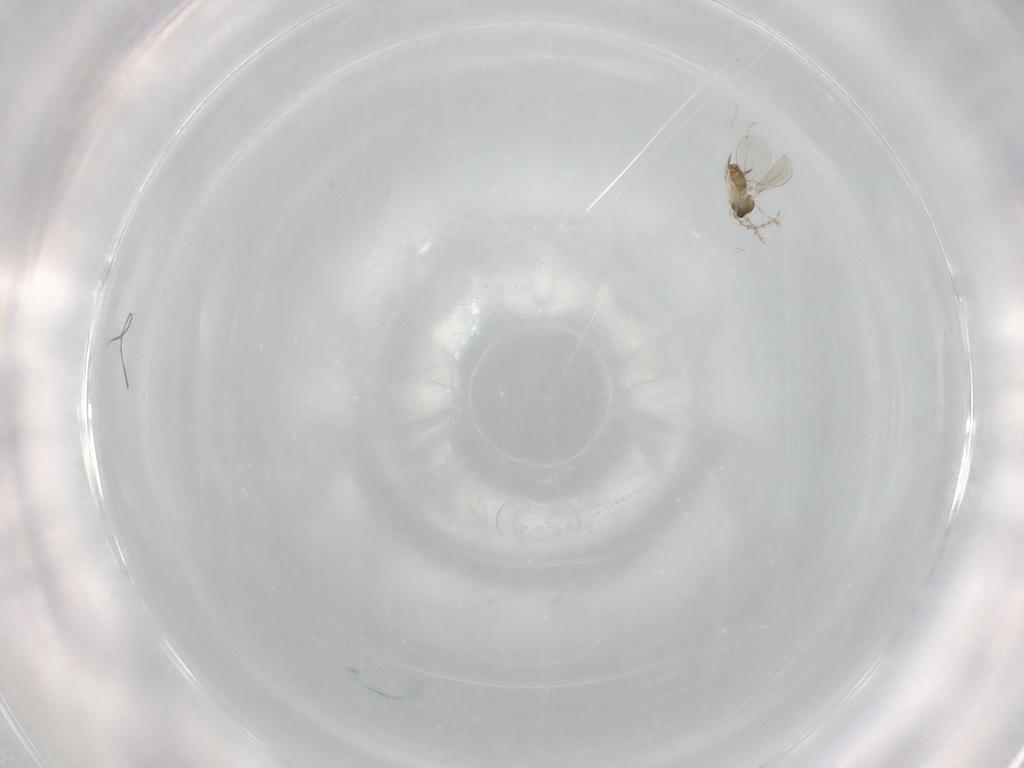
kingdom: Animalia
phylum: Arthropoda
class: Insecta
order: Diptera
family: Cecidomyiidae
